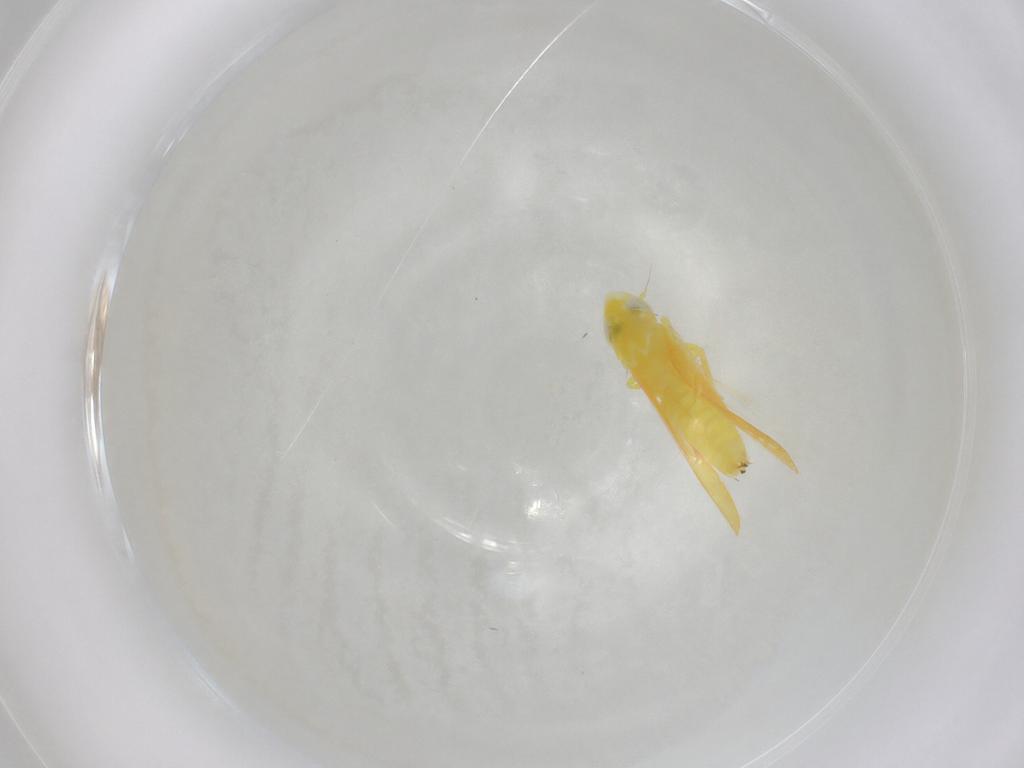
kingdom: Animalia
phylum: Arthropoda
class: Insecta
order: Hemiptera
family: Cicadellidae
